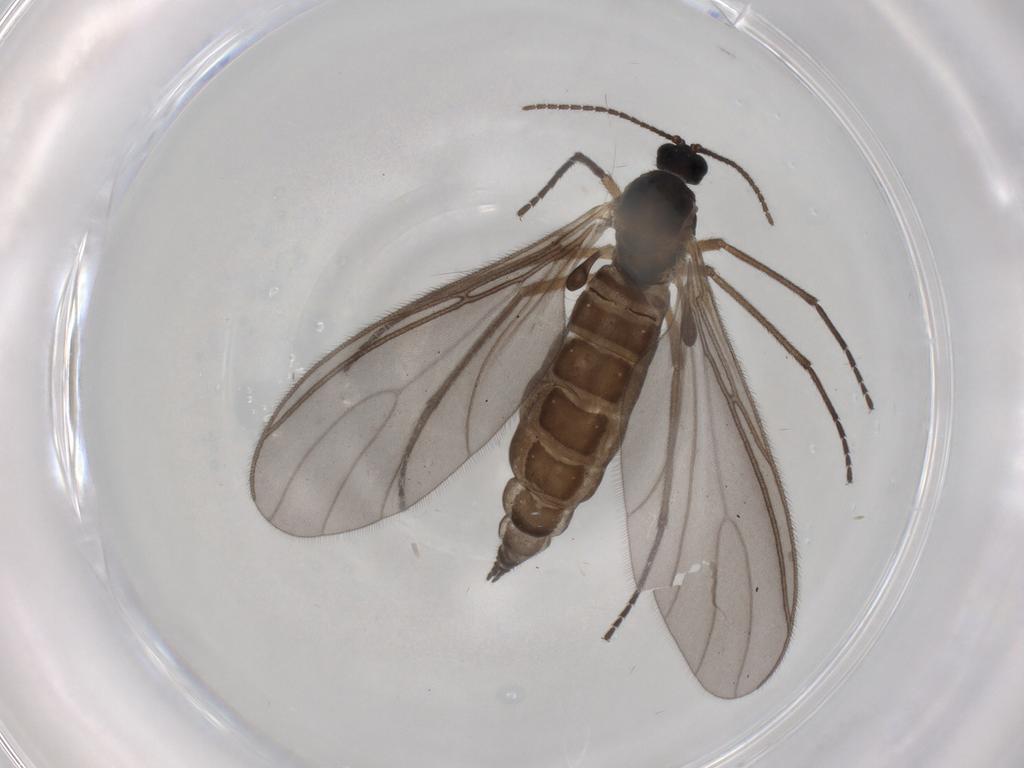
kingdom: Animalia
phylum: Arthropoda
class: Insecta
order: Diptera
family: Sciaridae
